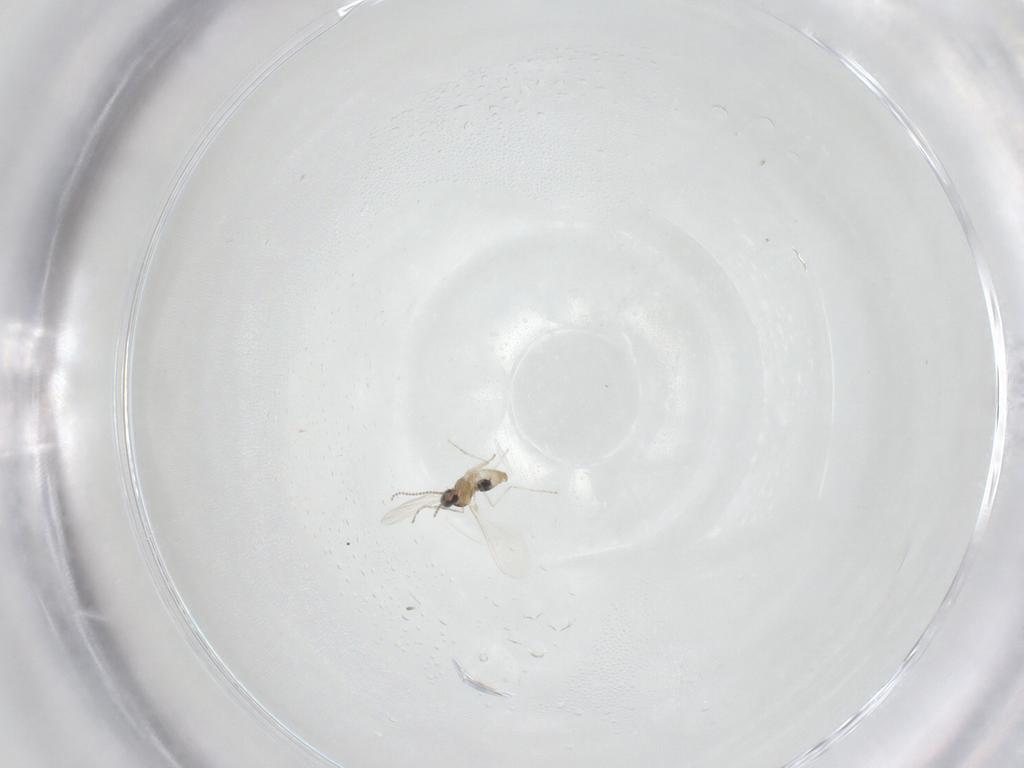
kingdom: Animalia
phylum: Arthropoda
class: Insecta
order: Diptera
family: Cecidomyiidae
